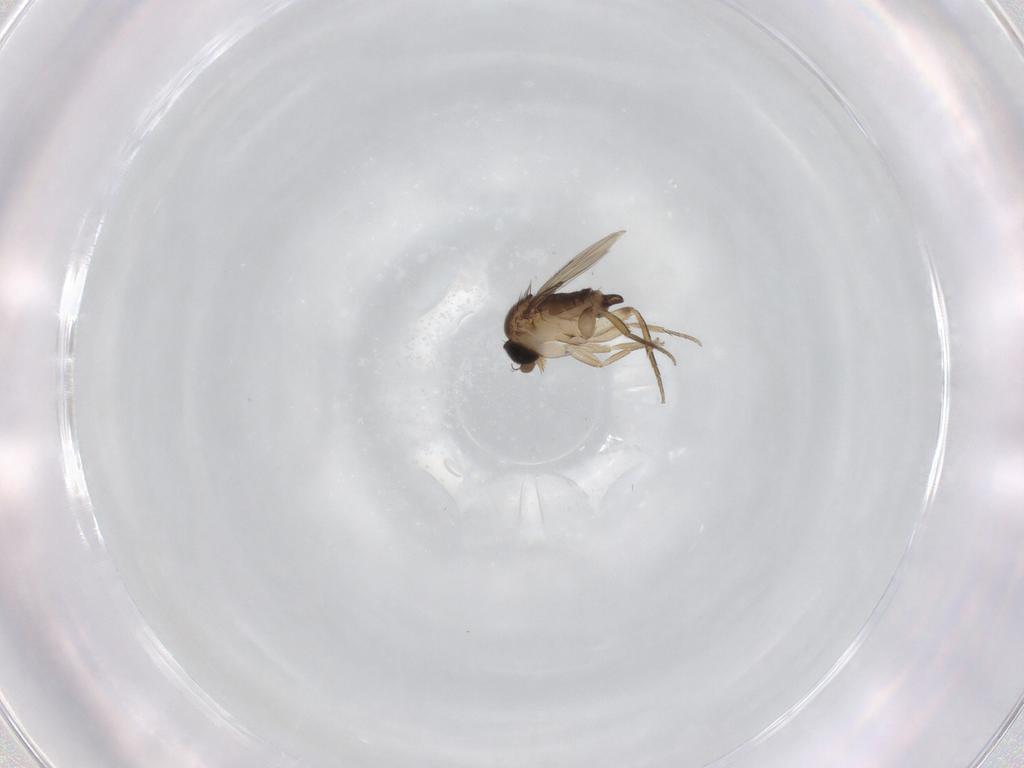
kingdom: Animalia
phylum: Arthropoda
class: Insecta
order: Diptera
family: Phoridae
